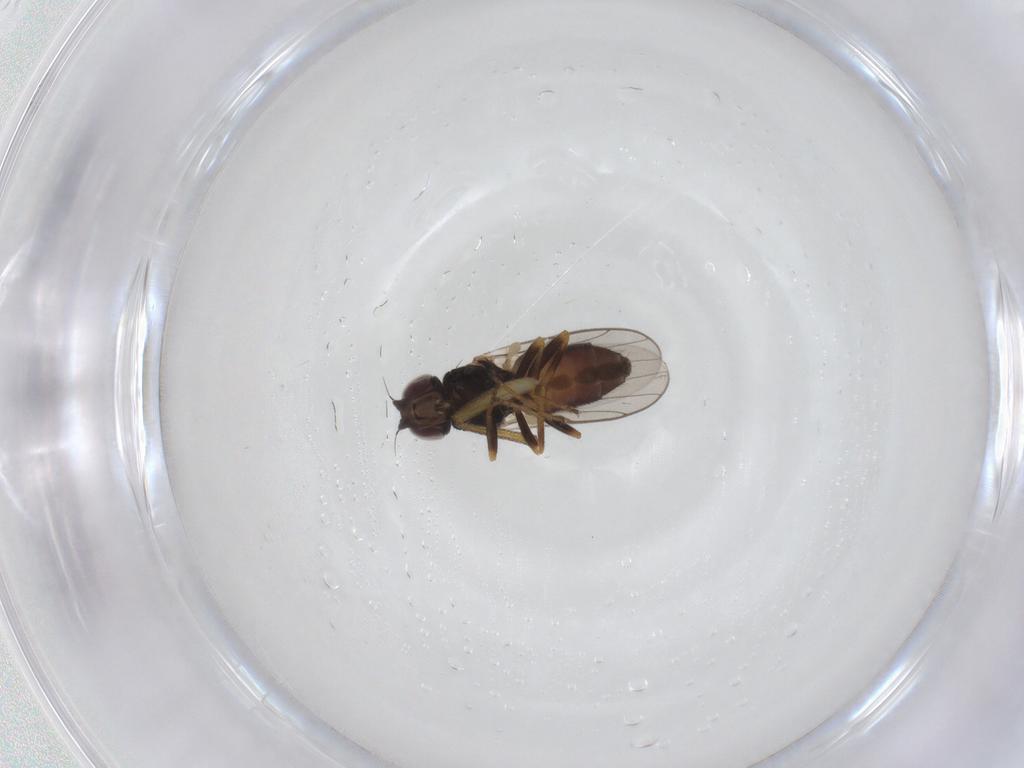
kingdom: Animalia
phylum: Arthropoda
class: Insecta
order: Diptera
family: Chloropidae
